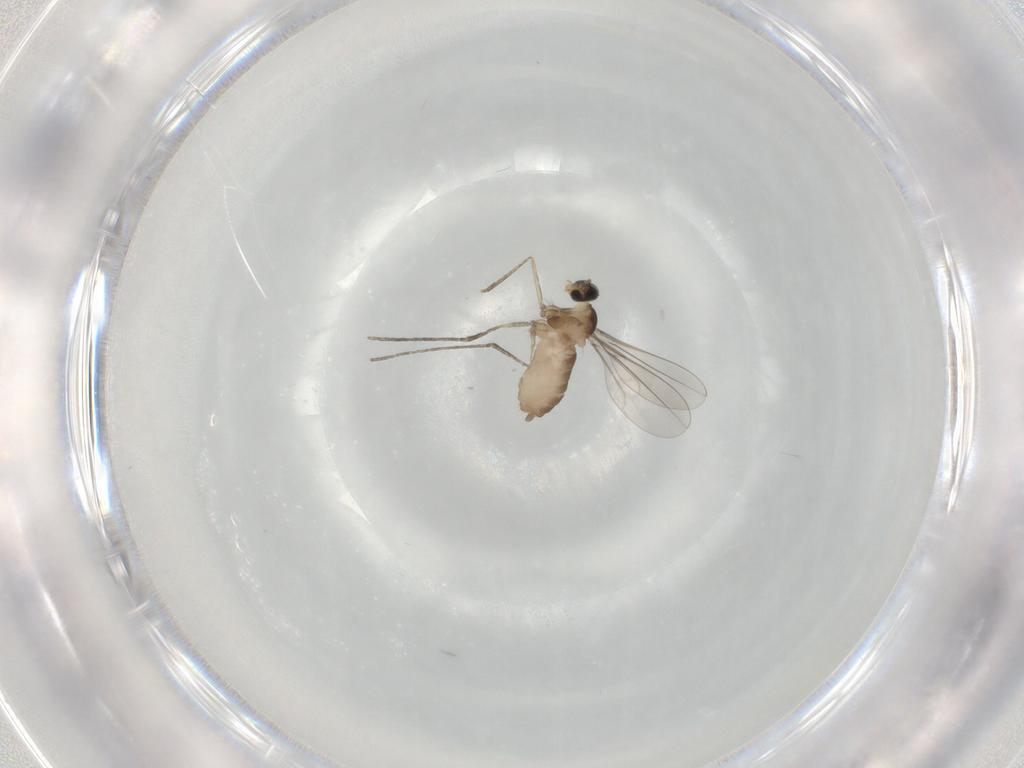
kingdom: Animalia
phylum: Arthropoda
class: Insecta
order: Diptera
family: Cecidomyiidae
